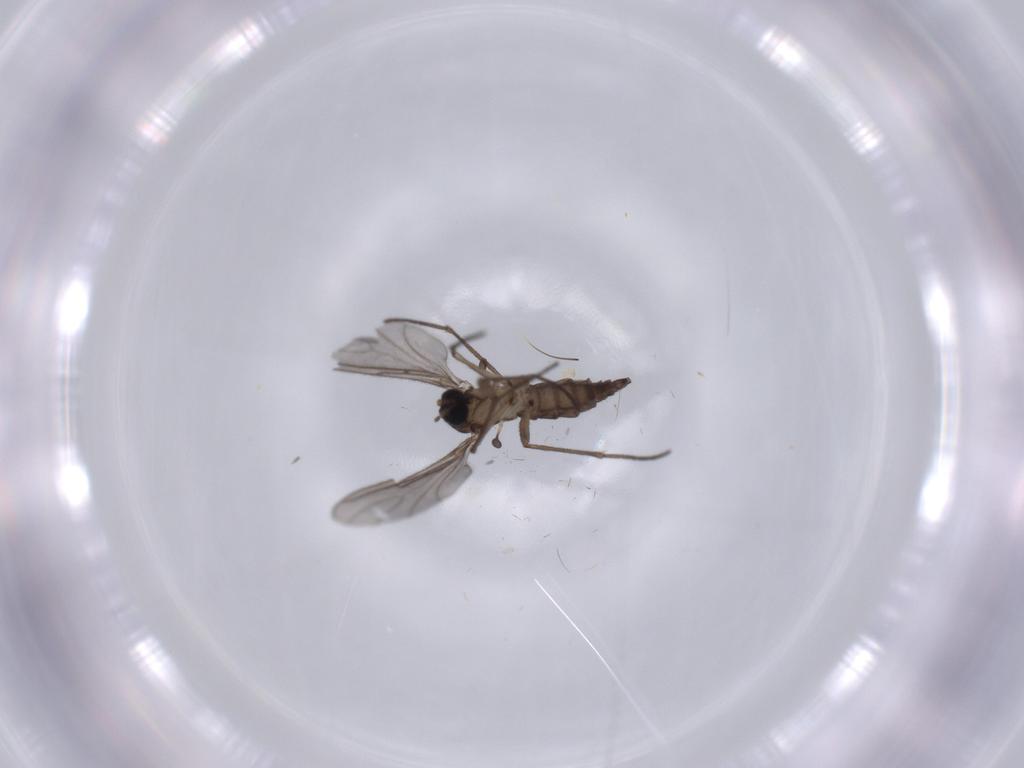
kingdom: Animalia
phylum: Arthropoda
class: Insecta
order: Diptera
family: Sciaridae
